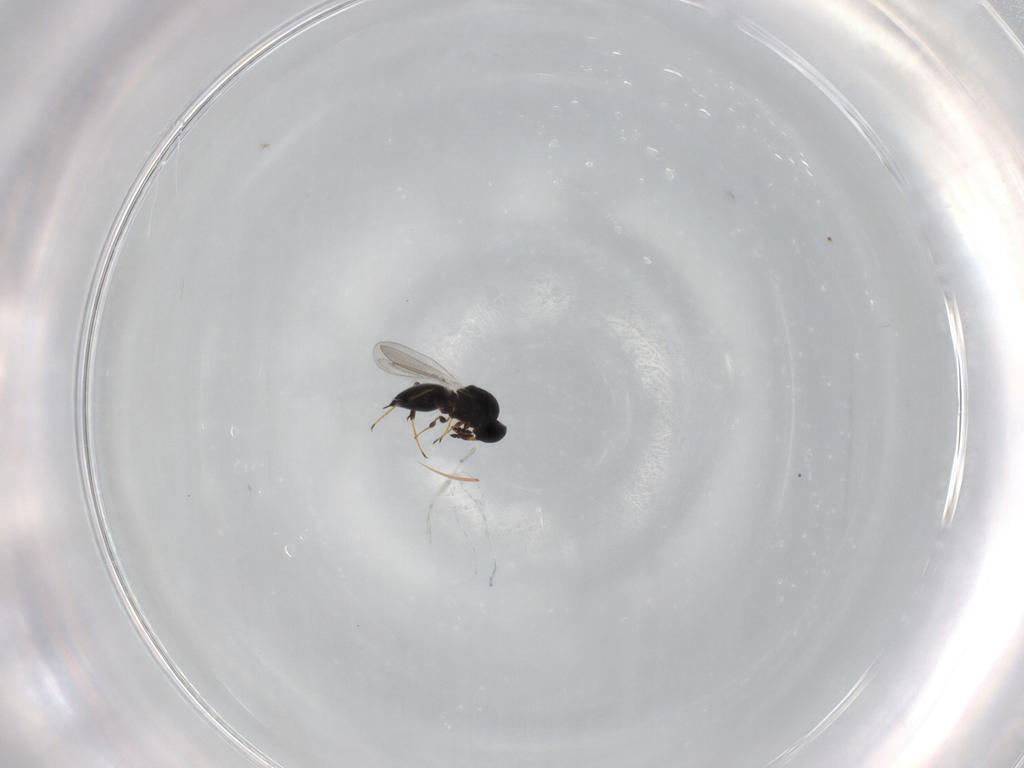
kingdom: Animalia
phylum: Arthropoda
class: Insecta
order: Hymenoptera
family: Platygastridae
